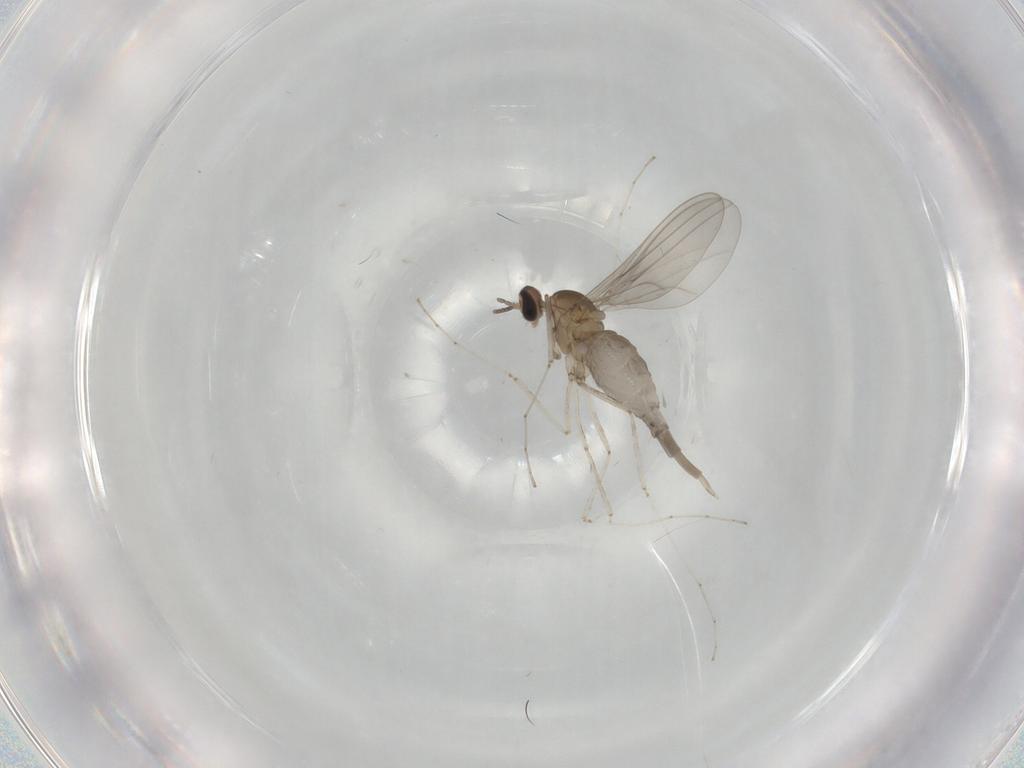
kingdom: Animalia
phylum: Arthropoda
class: Insecta
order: Diptera
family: Cecidomyiidae
